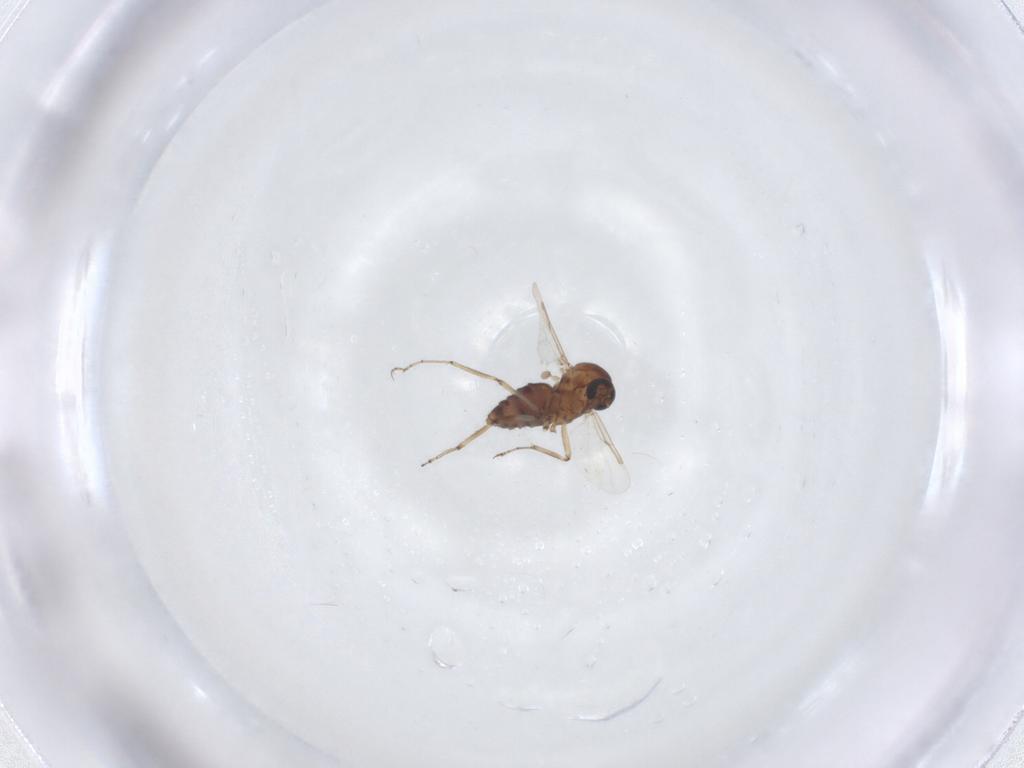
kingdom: Animalia
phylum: Arthropoda
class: Insecta
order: Diptera
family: Ceratopogonidae
